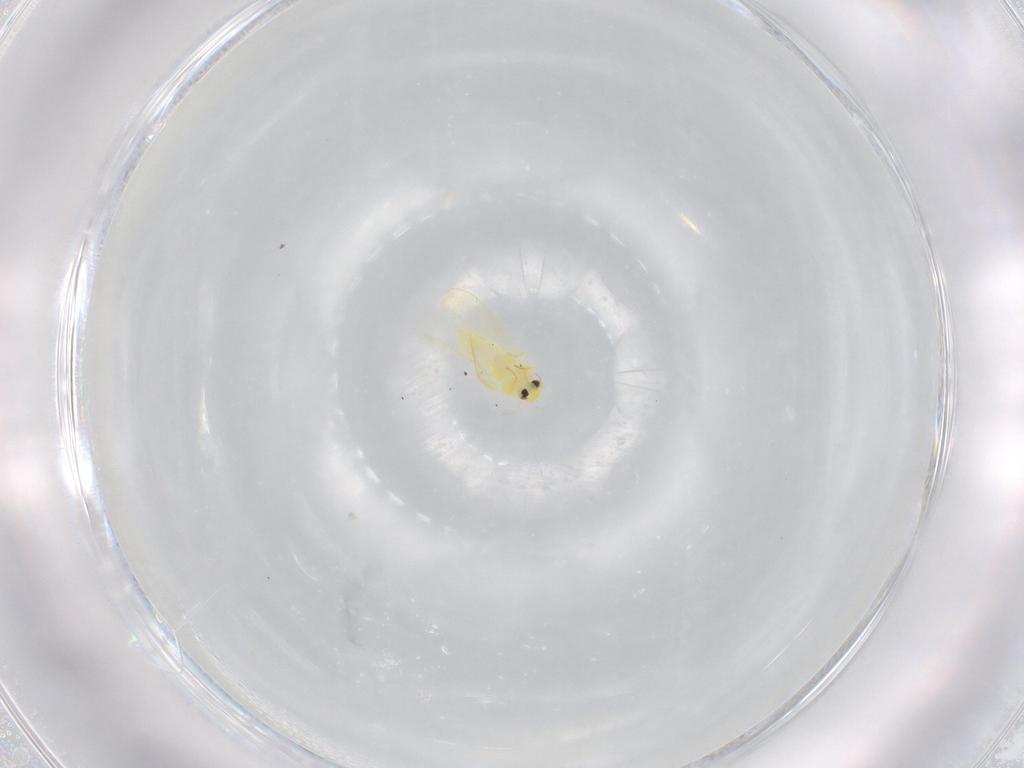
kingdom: Animalia
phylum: Arthropoda
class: Insecta
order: Hemiptera
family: Aleyrodidae
